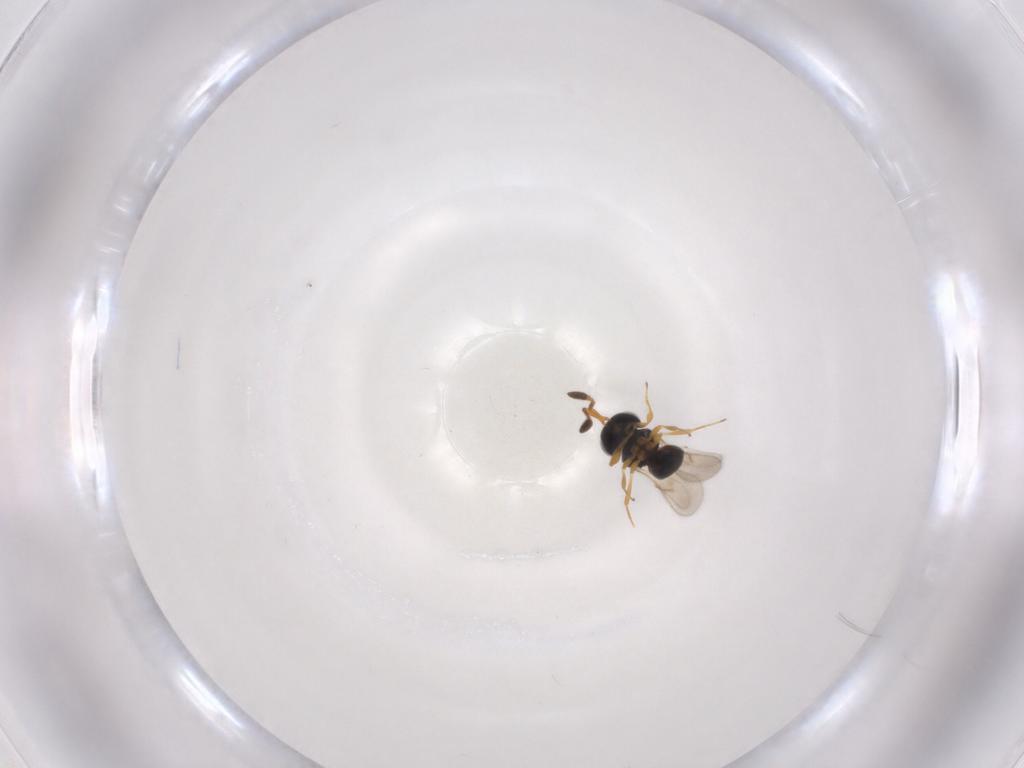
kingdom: Animalia
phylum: Arthropoda
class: Insecta
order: Hymenoptera
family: Scelionidae
